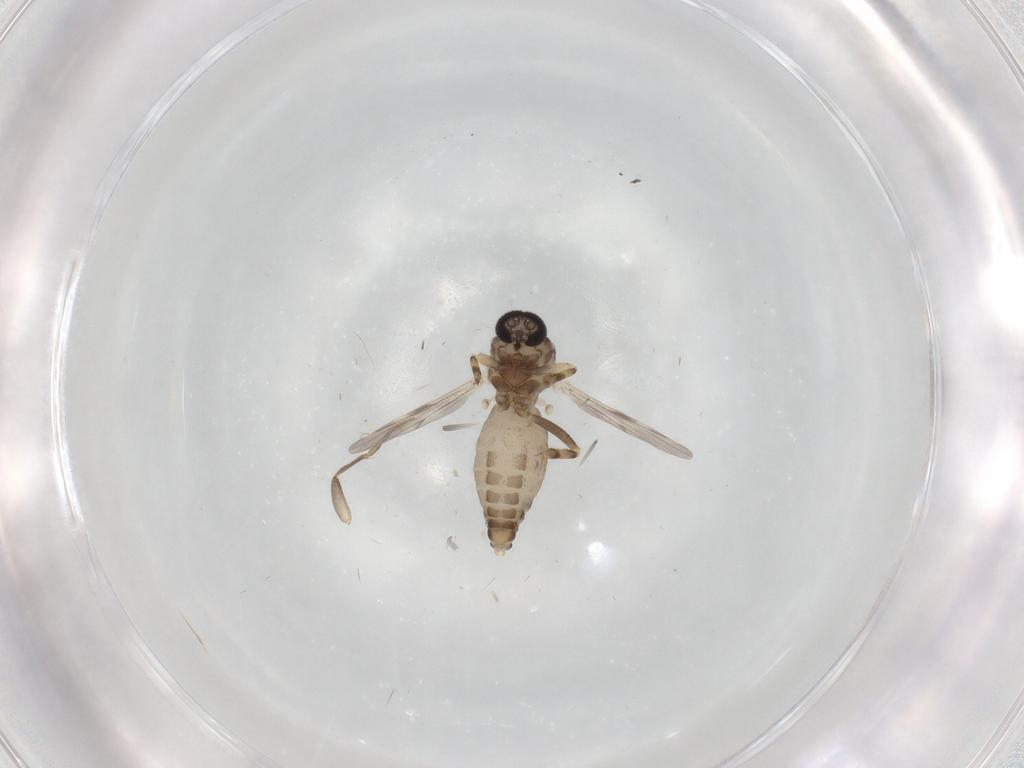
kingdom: Animalia
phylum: Arthropoda
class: Insecta
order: Diptera
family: Ceratopogonidae
